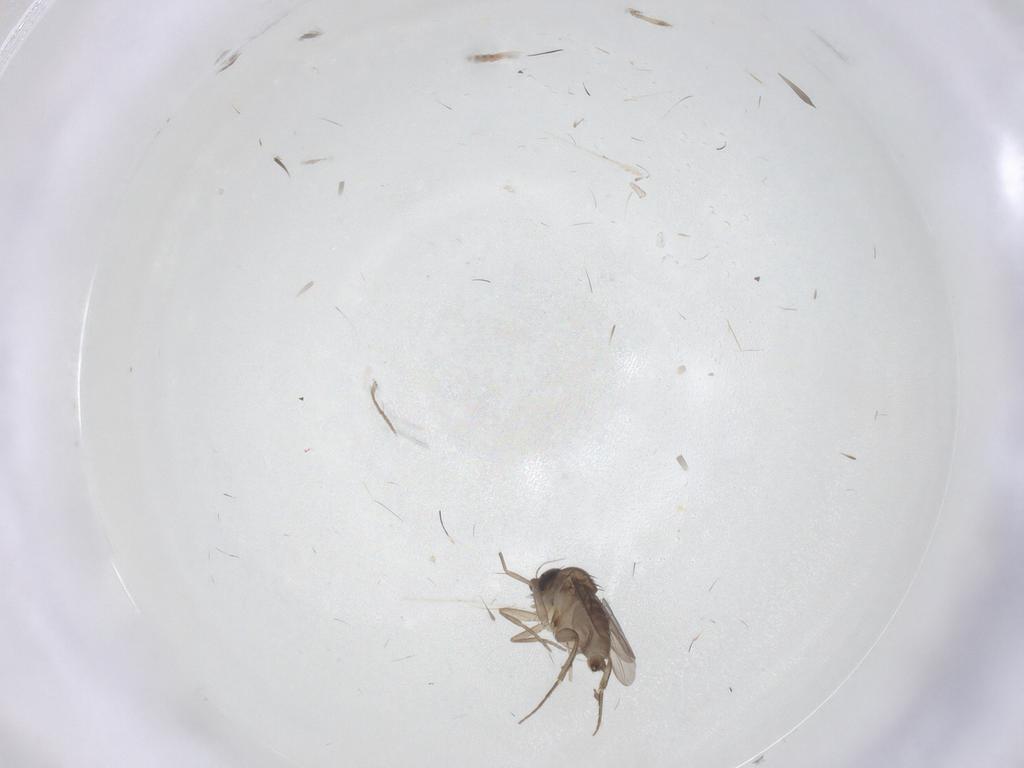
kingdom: Animalia
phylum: Arthropoda
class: Insecta
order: Diptera
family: Cecidomyiidae
